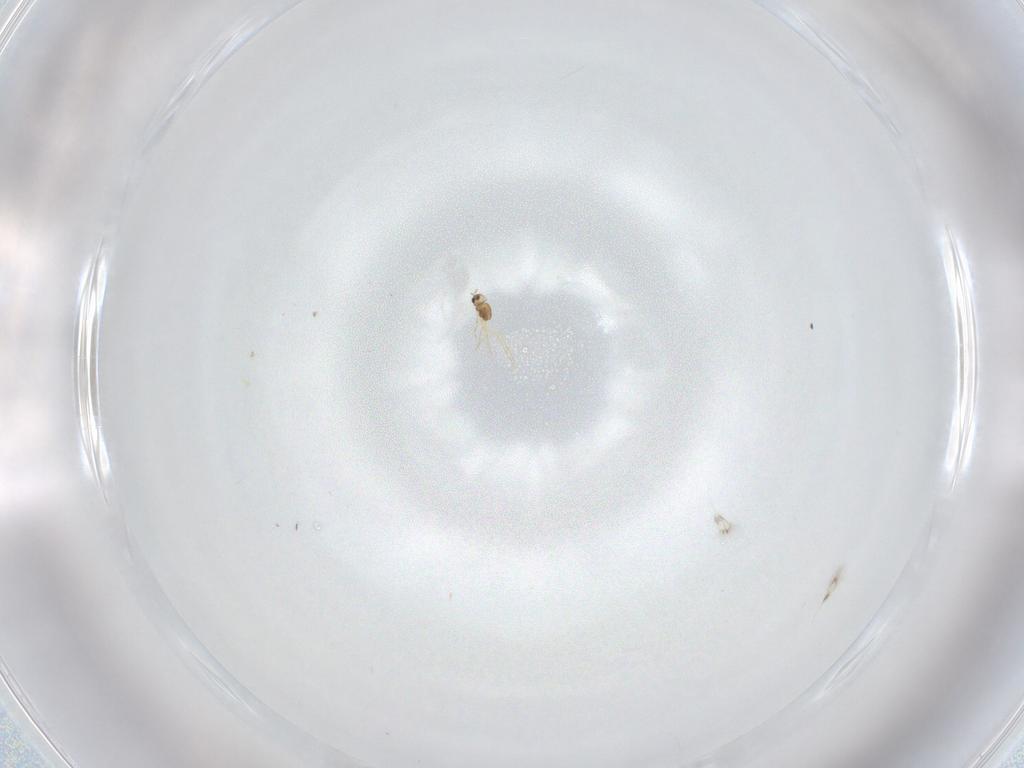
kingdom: Animalia
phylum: Arthropoda
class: Insecta
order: Hymenoptera
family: Mymarommatidae
